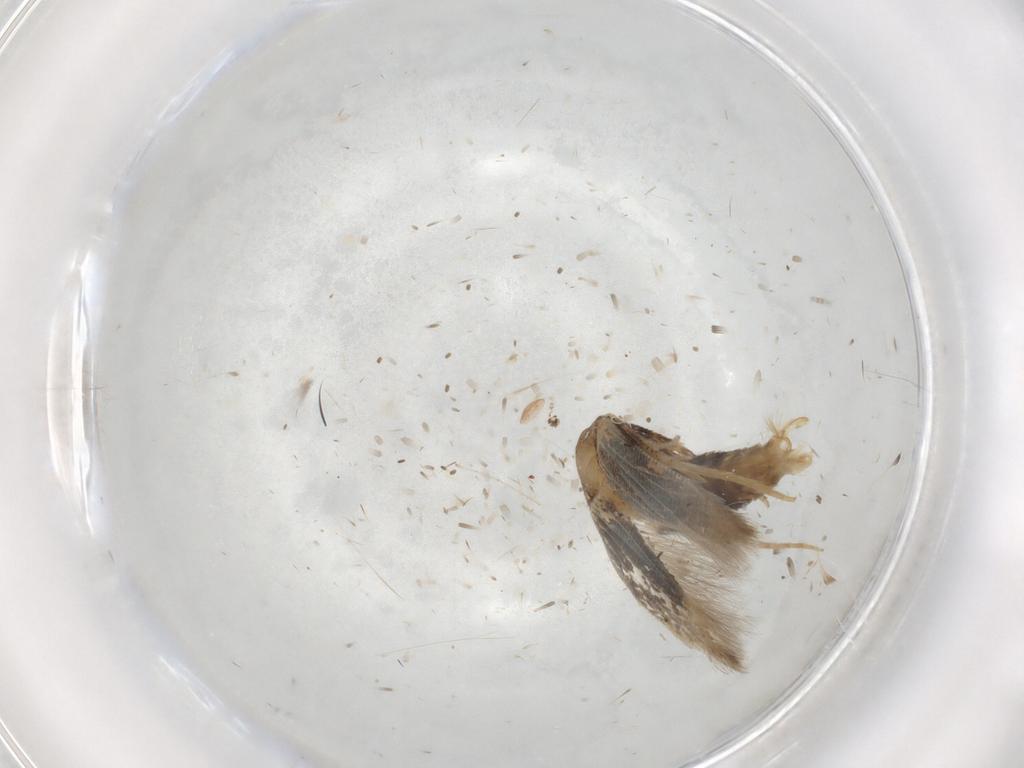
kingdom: Animalia
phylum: Arthropoda
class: Insecta
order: Lepidoptera
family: Cosmopterigidae
